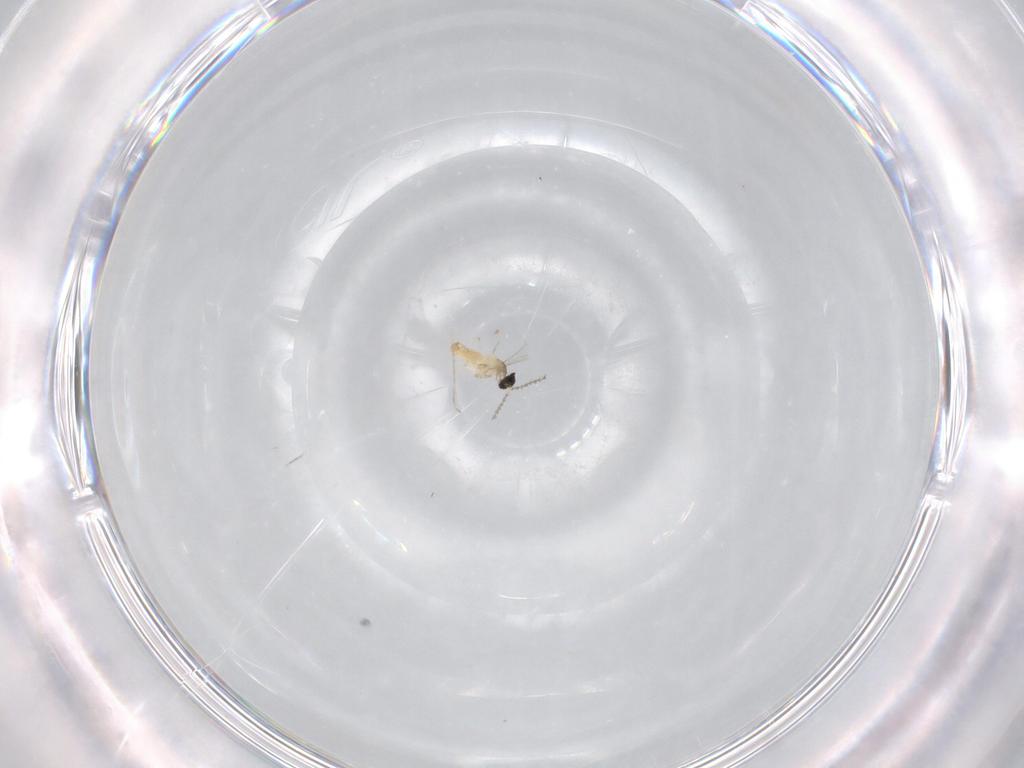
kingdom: Animalia
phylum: Arthropoda
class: Insecta
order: Diptera
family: Cecidomyiidae
